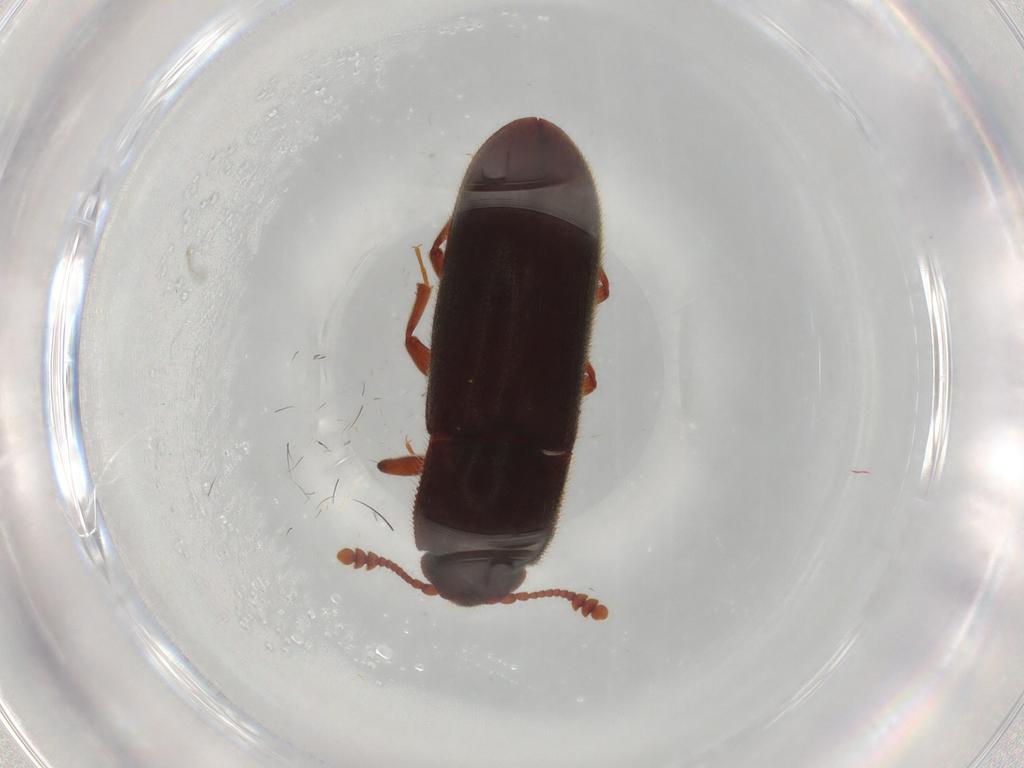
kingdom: Animalia
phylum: Arthropoda
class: Insecta
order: Coleoptera
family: Biphyllidae
